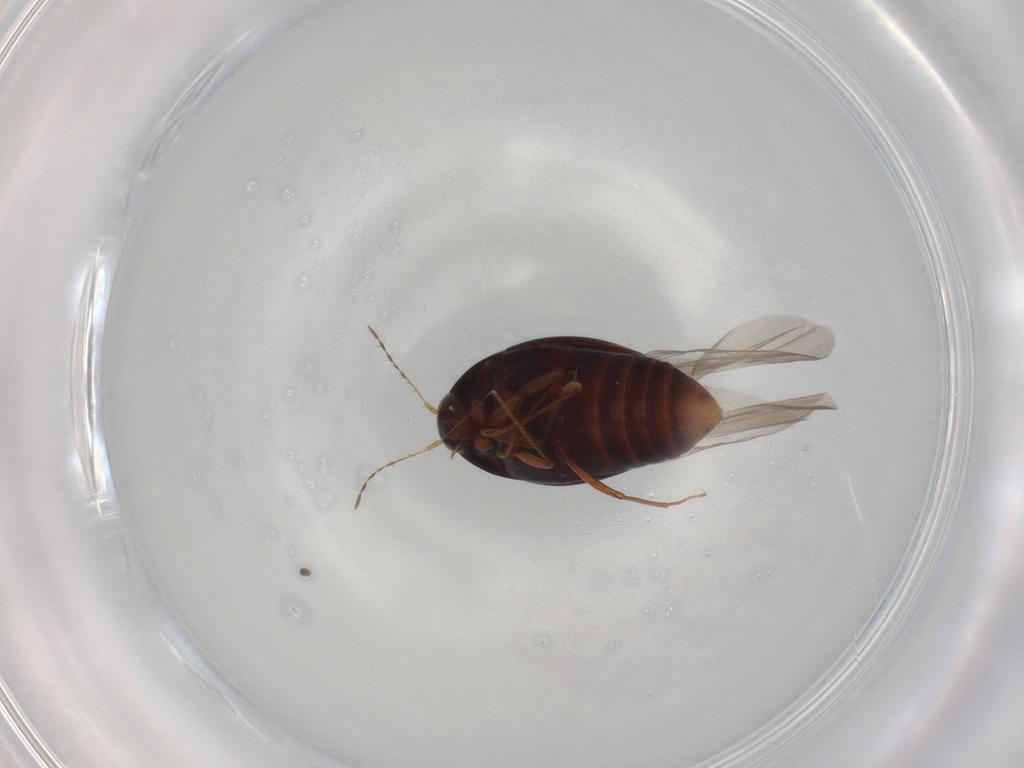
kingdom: Animalia
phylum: Arthropoda
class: Insecta
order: Coleoptera
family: Staphylinidae
